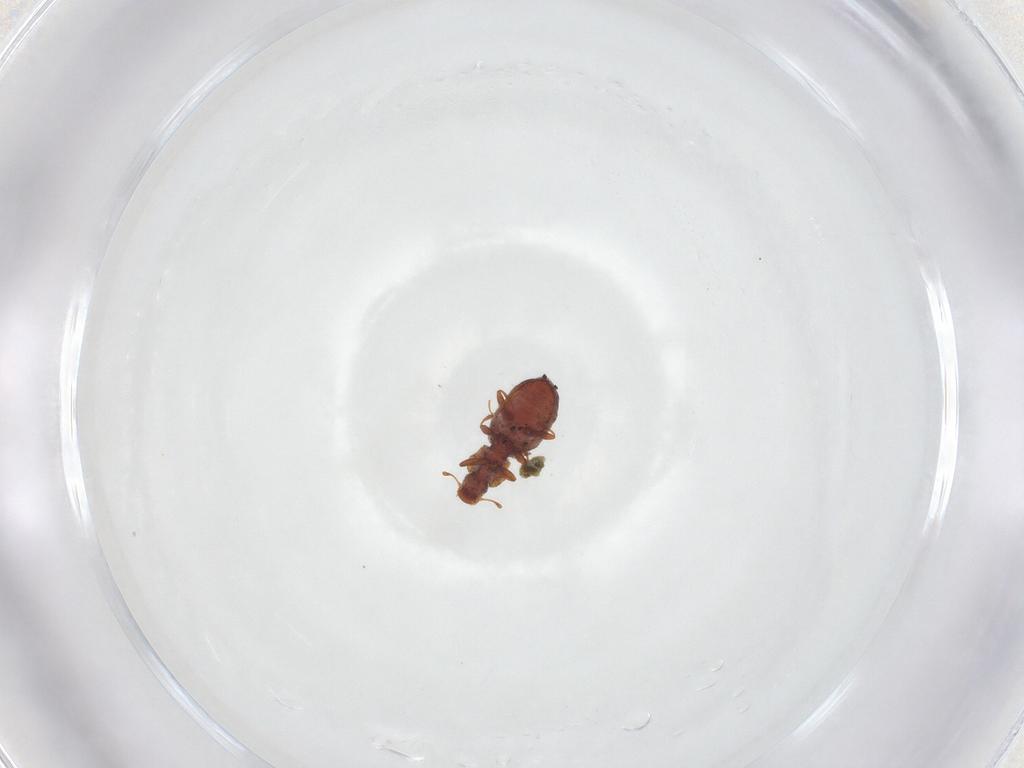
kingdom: Animalia
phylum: Arthropoda
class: Insecta
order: Coleoptera
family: Chrysomelidae
